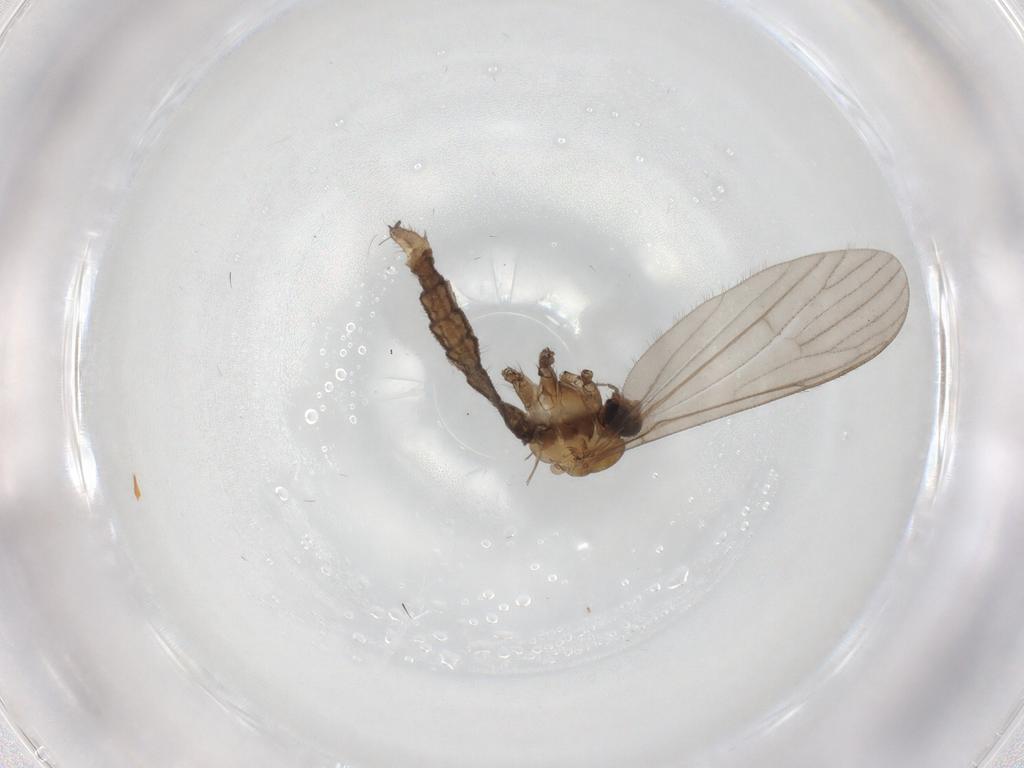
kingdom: Animalia
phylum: Arthropoda
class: Insecta
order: Diptera
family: Limoniidae
